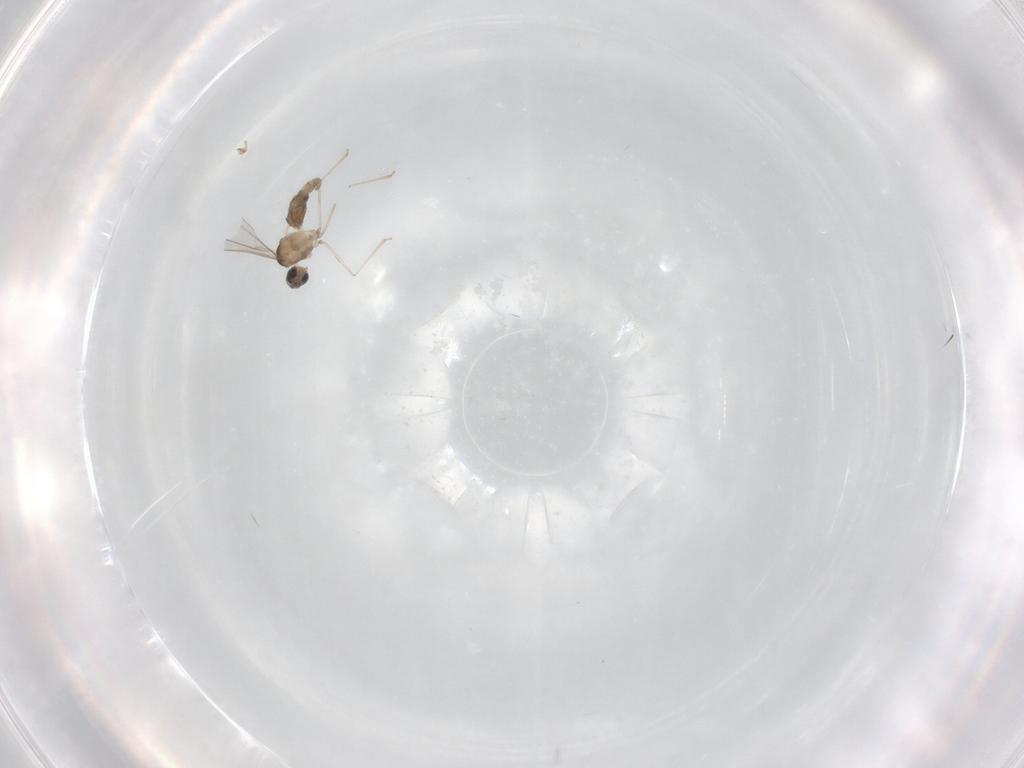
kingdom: Animalia
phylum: Arthropoda
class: Insecta
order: Diptera
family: Cecidomyiidae
